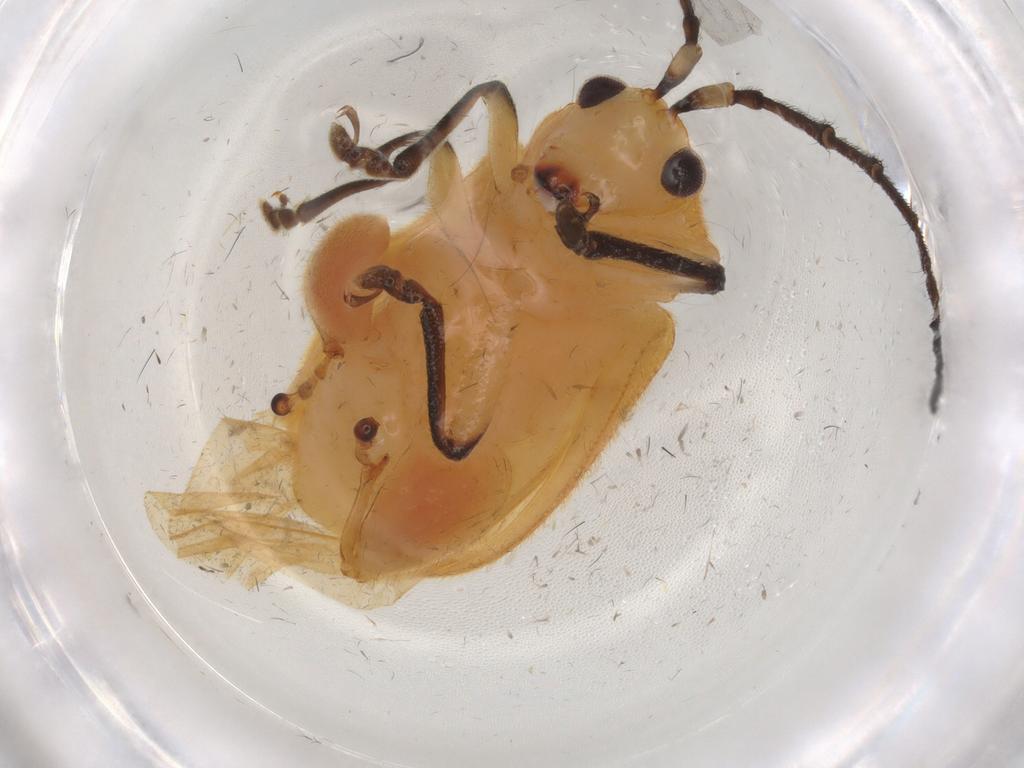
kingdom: Animalia
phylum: Arthropoda
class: Insecta
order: Coleoptera
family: Chrysomelidae
